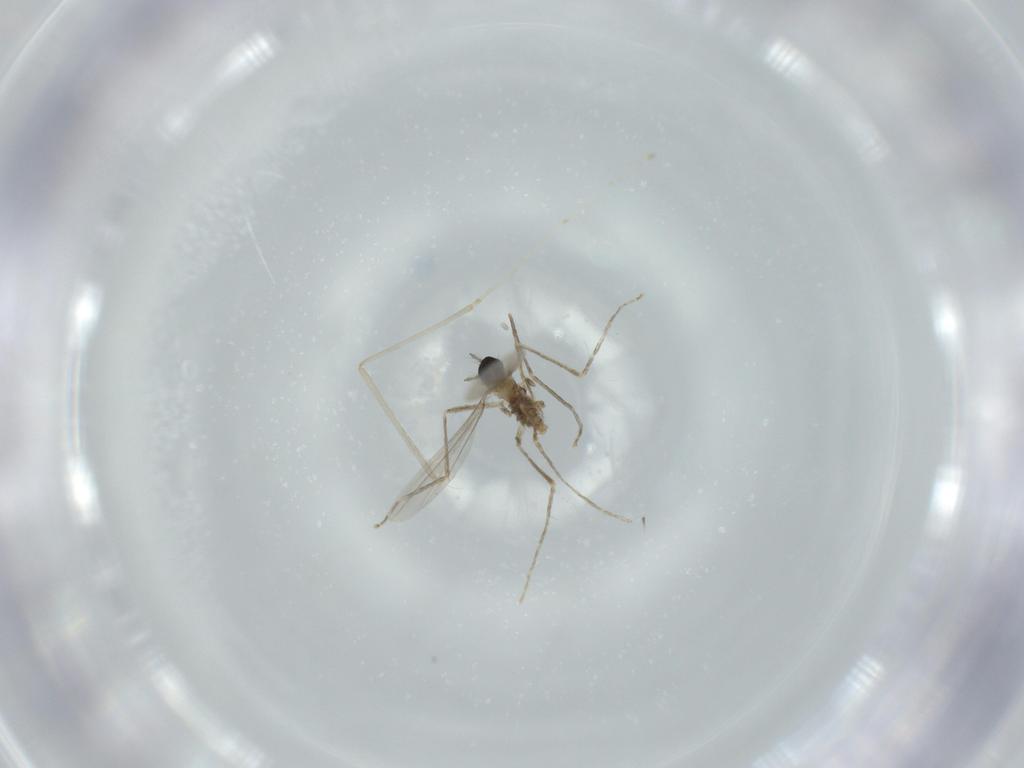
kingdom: Animalia
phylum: Arthropoda
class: Insecta
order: Diptera
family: Cecidomyiidae
